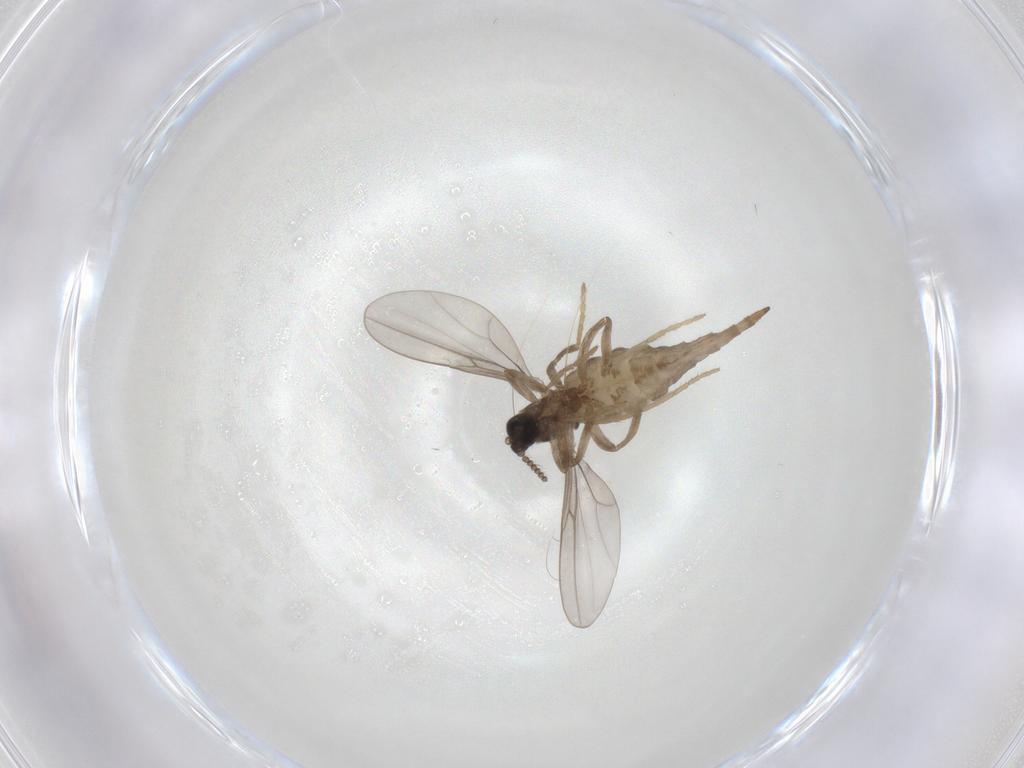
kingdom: Animalia
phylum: Arthropoda
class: Insecta
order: Diptera
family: Cecidomyiidae
